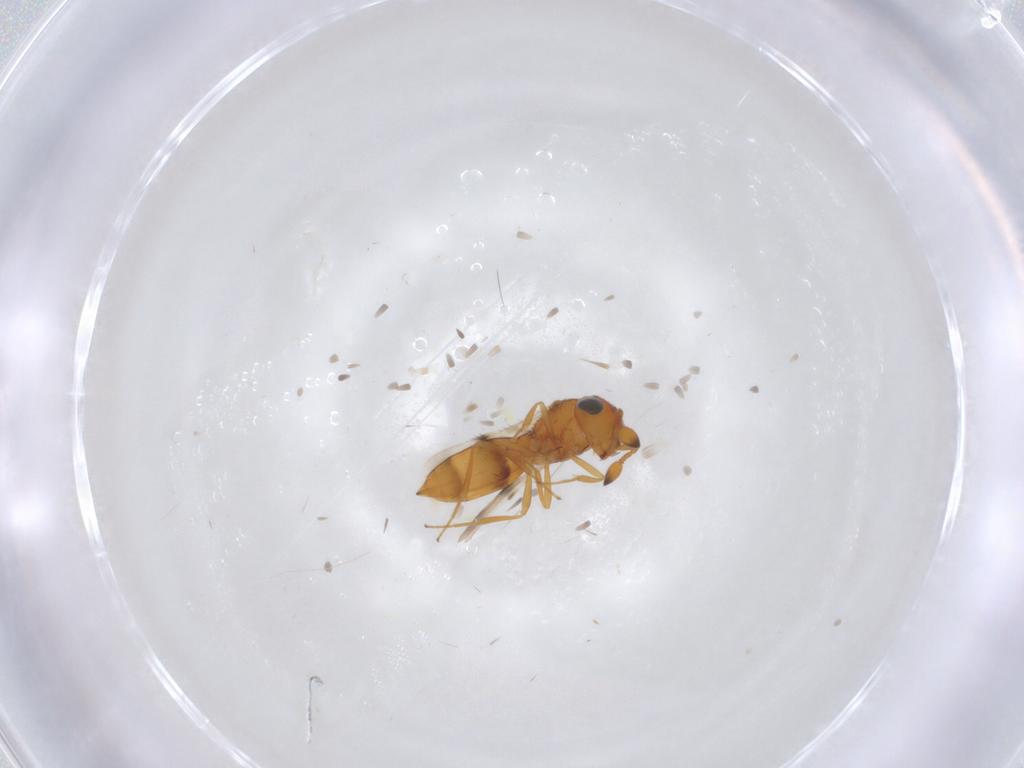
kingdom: Animalia
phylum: Arthropoda
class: Insecta
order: Hymenoptera
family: Scelionidae
